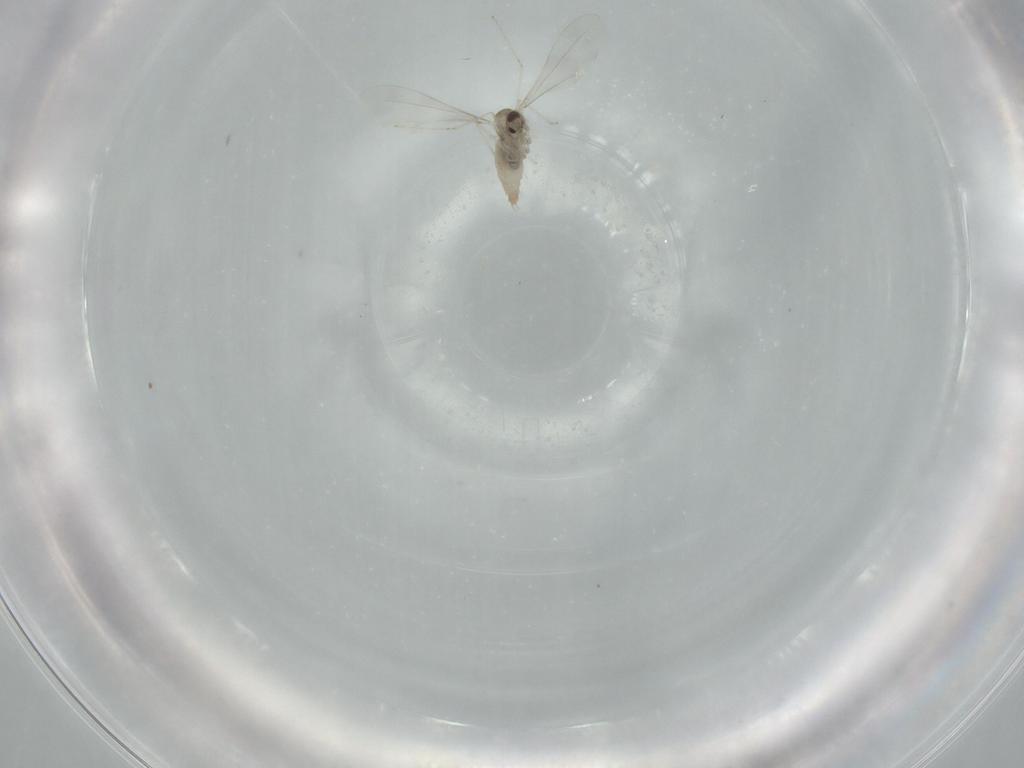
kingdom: Animalia
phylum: Arthropoda
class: Insecta
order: Diptera
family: Cecidomyiidae
